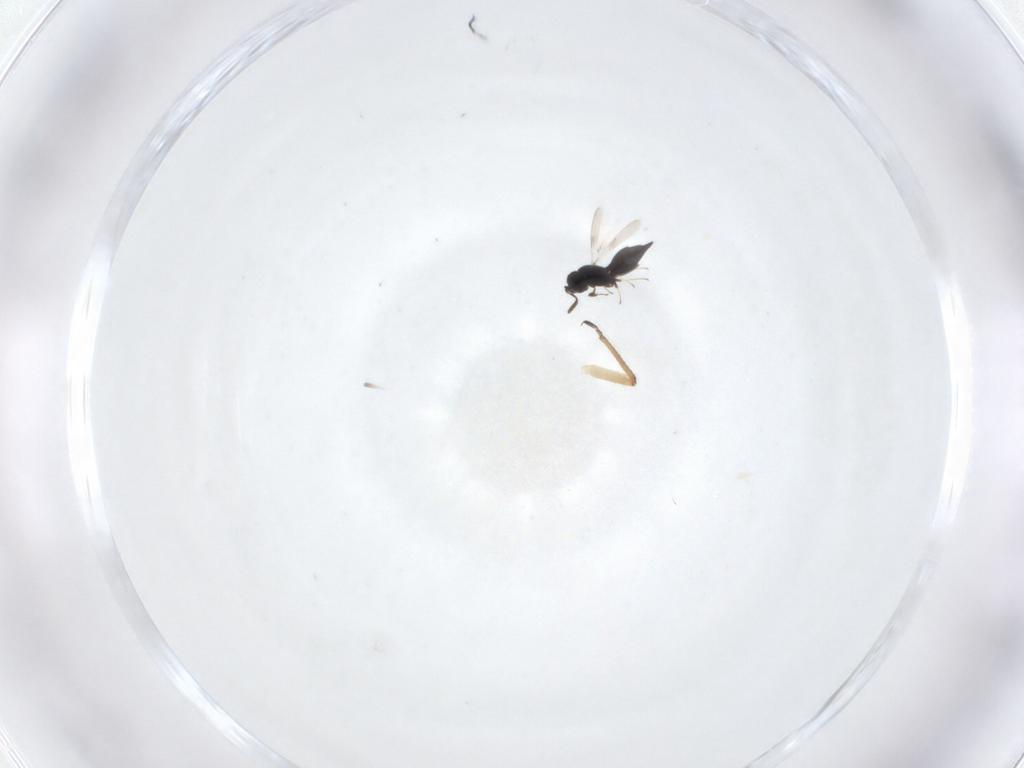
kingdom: Animalia
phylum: Arthropoda
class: Insecta
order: Hymenoptera
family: Scelionidae
